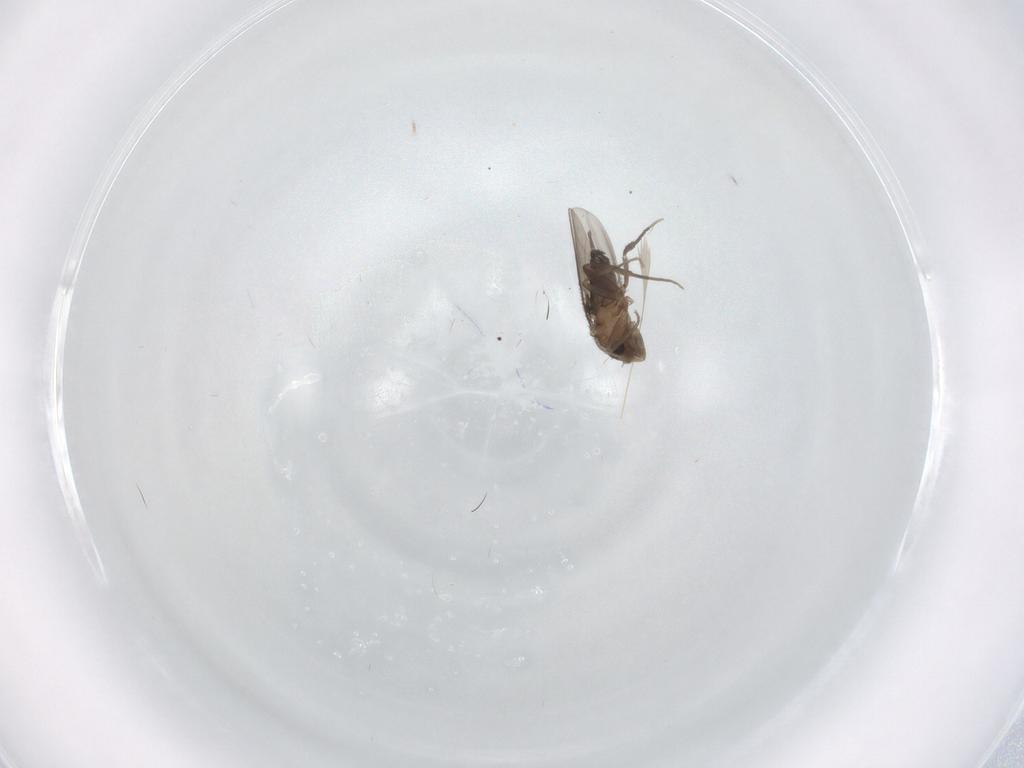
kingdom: Animalia
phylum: Arthropoda
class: Insecta
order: Diptera
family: Phoridae
